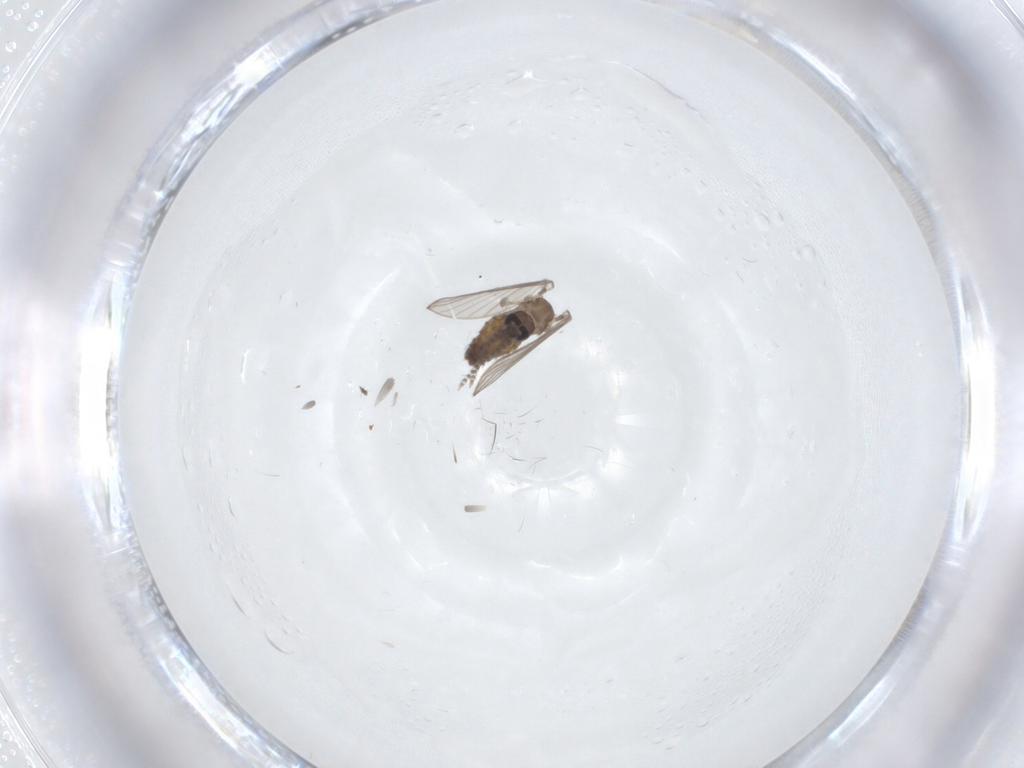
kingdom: Animalia
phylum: Arthropoda
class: Insecta
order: Diptera
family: Psychodidae
